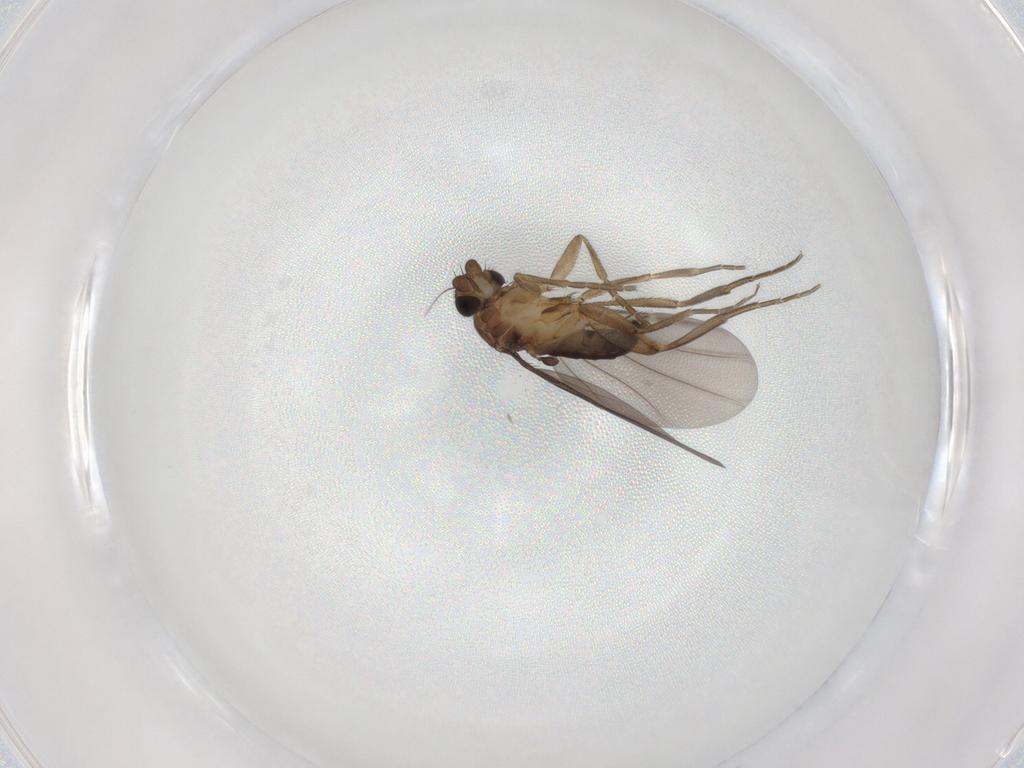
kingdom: Animalia
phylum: Arthropoda
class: Insecta
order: Diptera
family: Phoridae
